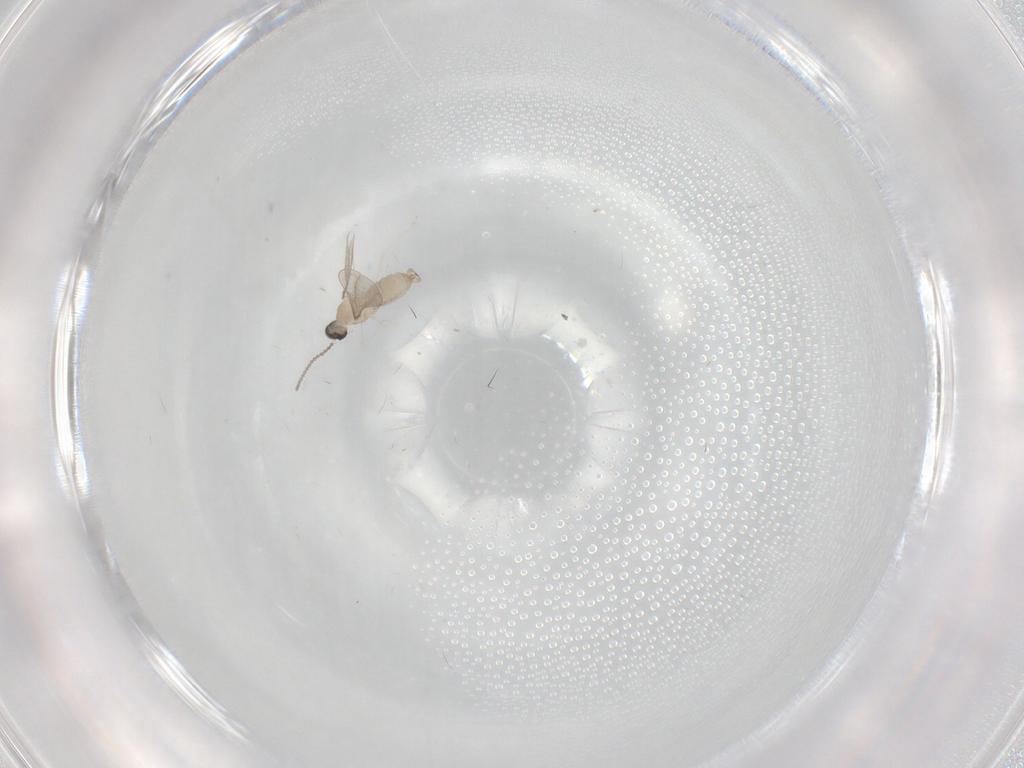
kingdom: Animalia
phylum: Arthropoda
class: Insecta
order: Diptera
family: Cecidomyiidae
